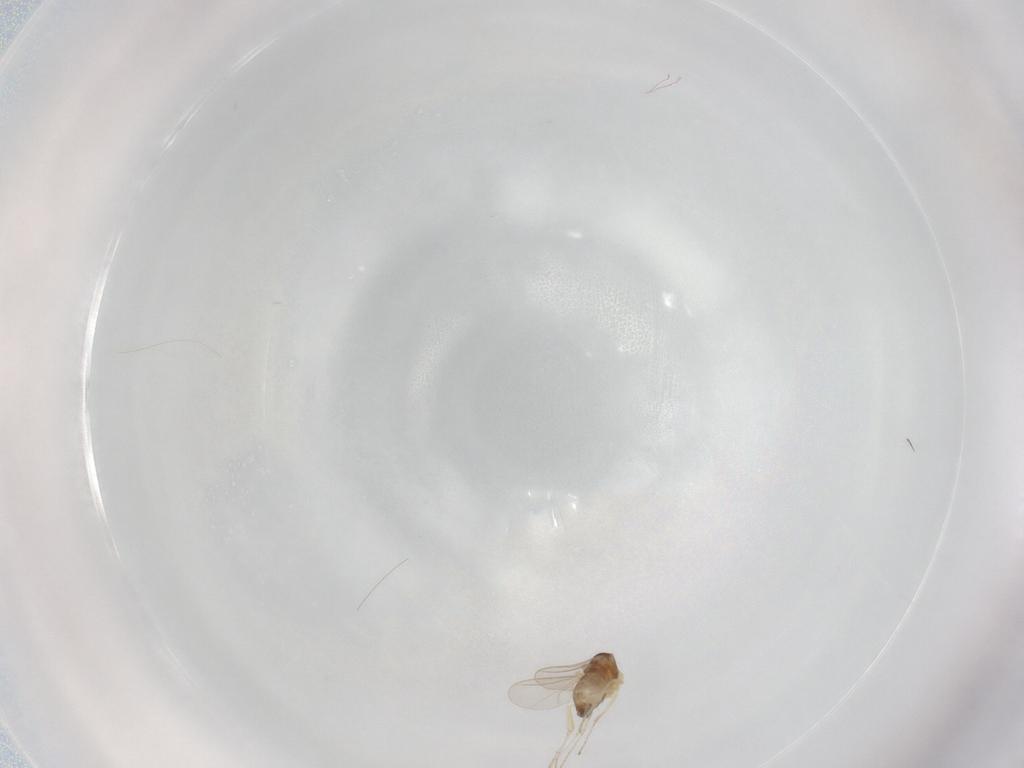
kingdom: Animalia
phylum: Arthropoda
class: Insecta
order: Diptera
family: Cecidomyiidae
